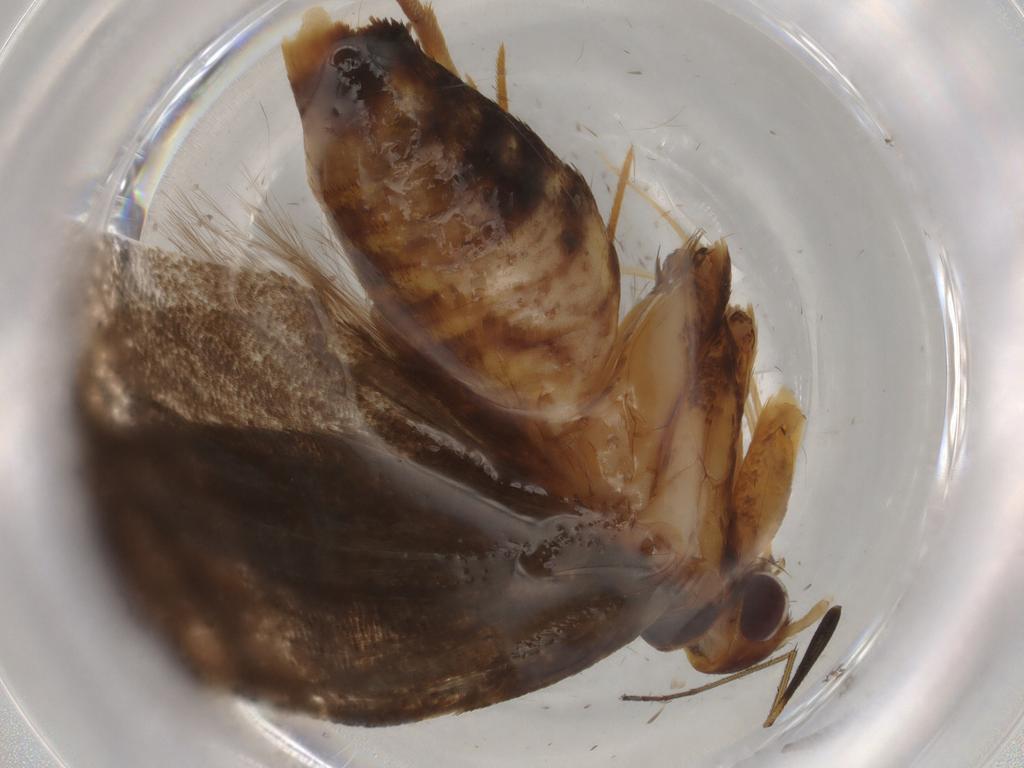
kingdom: Animalia
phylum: Arthropoda
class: Insecta
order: Lepidoptera
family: Oecophoridae
